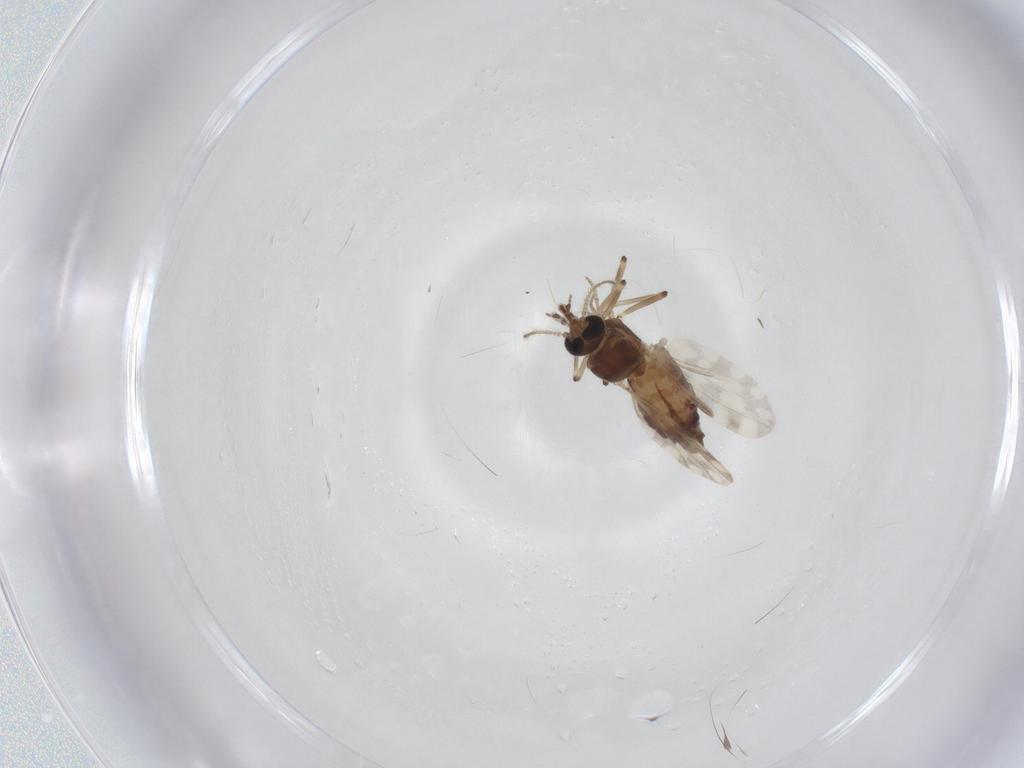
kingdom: Animalia
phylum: Arthropoda
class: Insecta
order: Diptera
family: Ceratopogonidae
